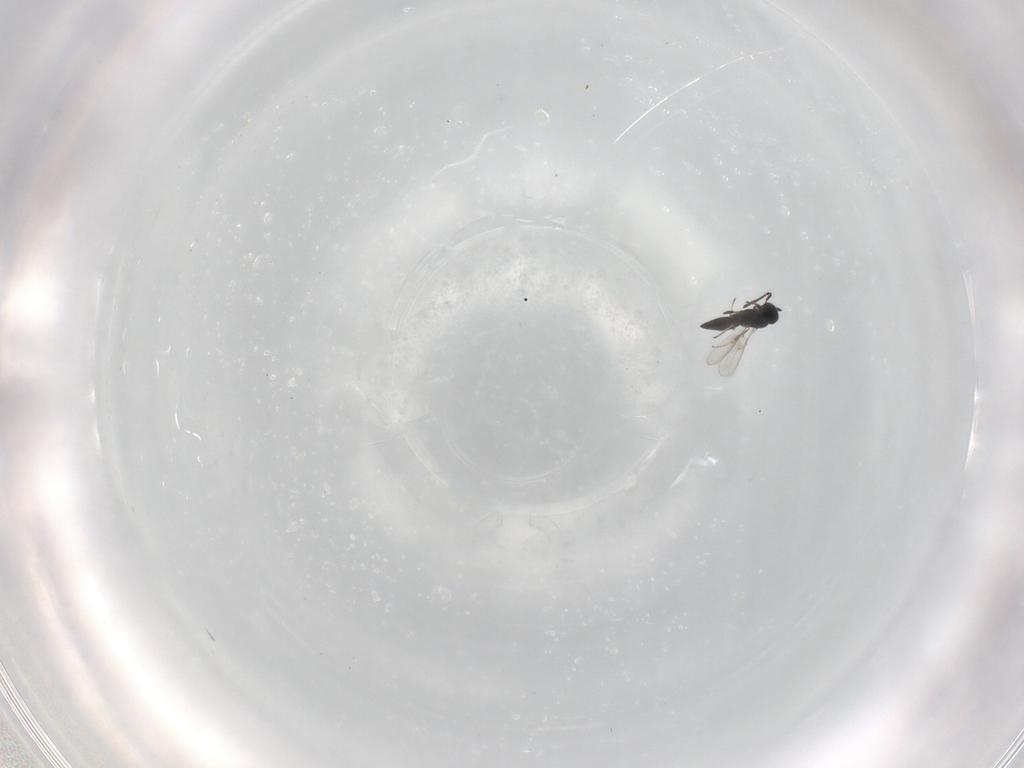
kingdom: Animalia
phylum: Arthropoda
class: Insecta
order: Hymenoptera
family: Scelionidae
